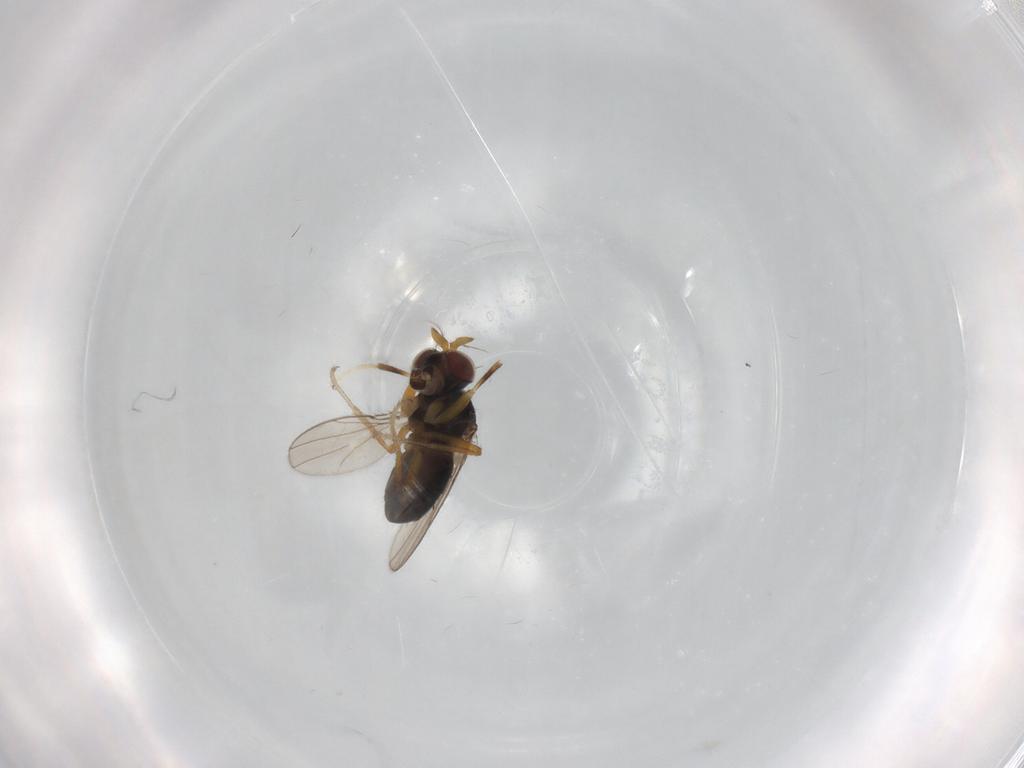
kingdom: Animalia
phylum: Arthropoda
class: Insecta
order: Diptera
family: Ephydridae
